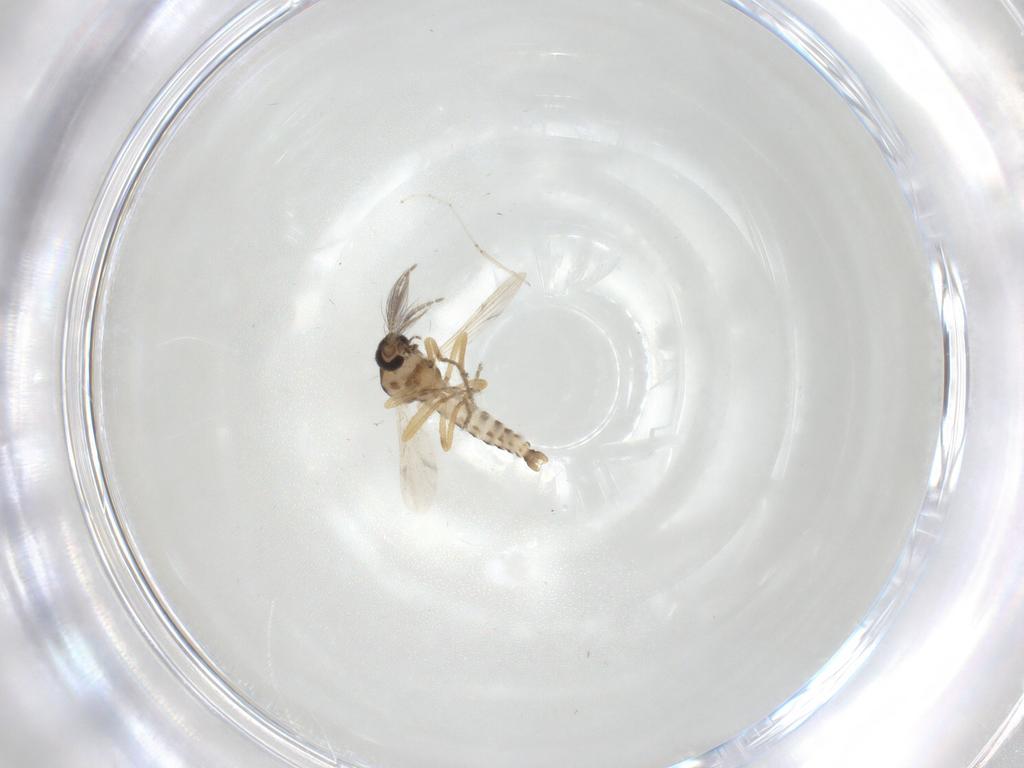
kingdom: Animalia
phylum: Arthropoda
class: Insecta
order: Diptera
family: Ceratopogonidae
